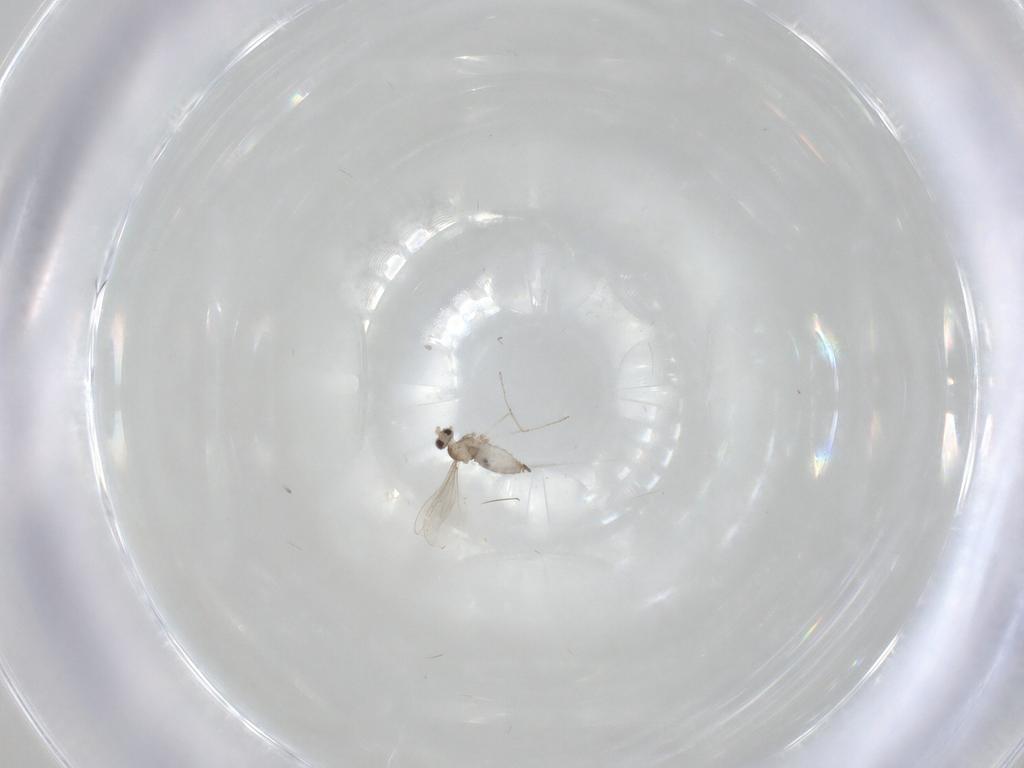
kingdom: Animalia
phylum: Arthropoda
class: Insecta
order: Diptera
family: Cecidomyiidae
